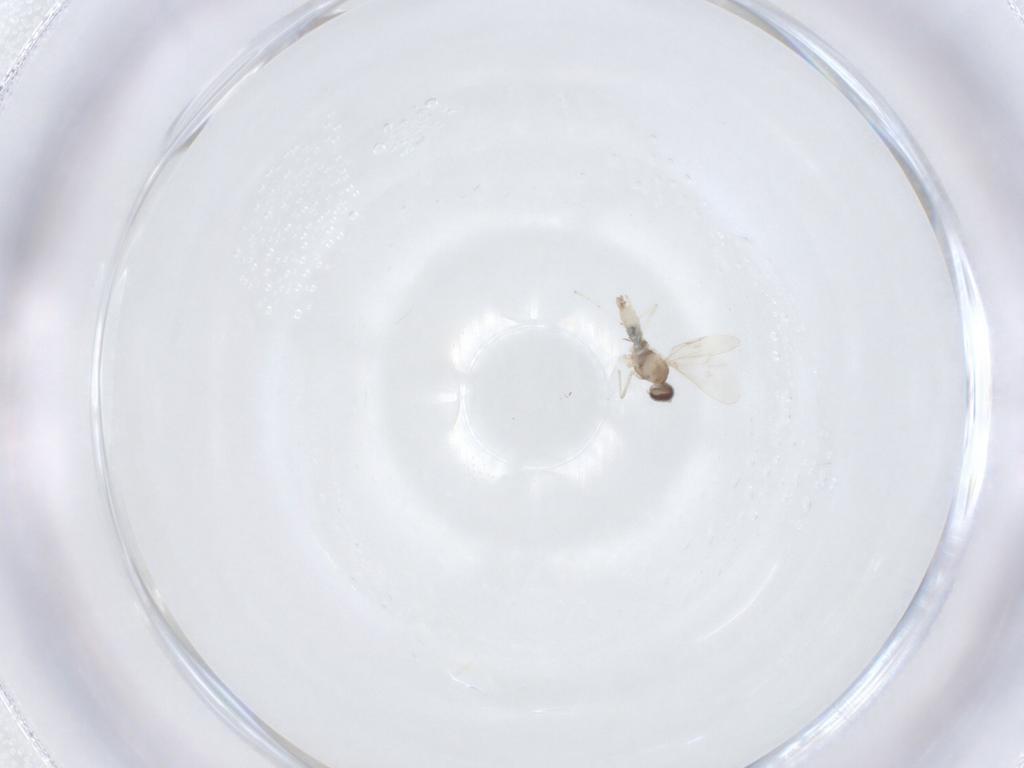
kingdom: Animalia
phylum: Arthropoda
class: Insecta
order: Diptera
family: Cecidomyiidae
